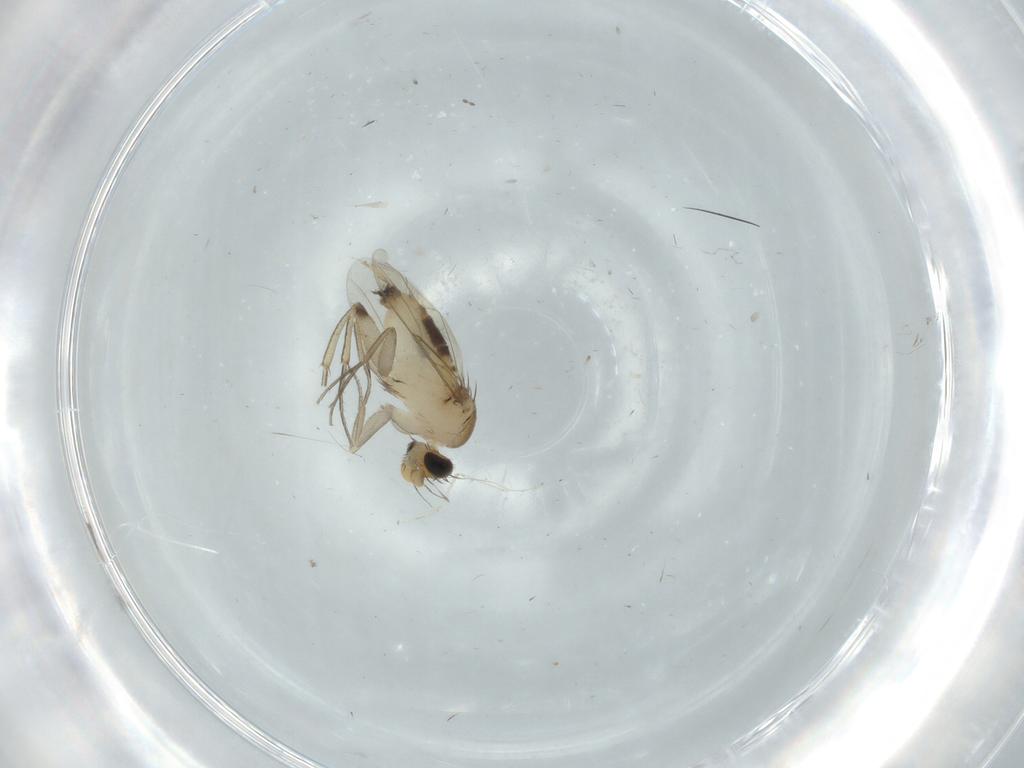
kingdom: Animalia
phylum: Arthropoda
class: Insecta
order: Diptera
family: Phoridae
